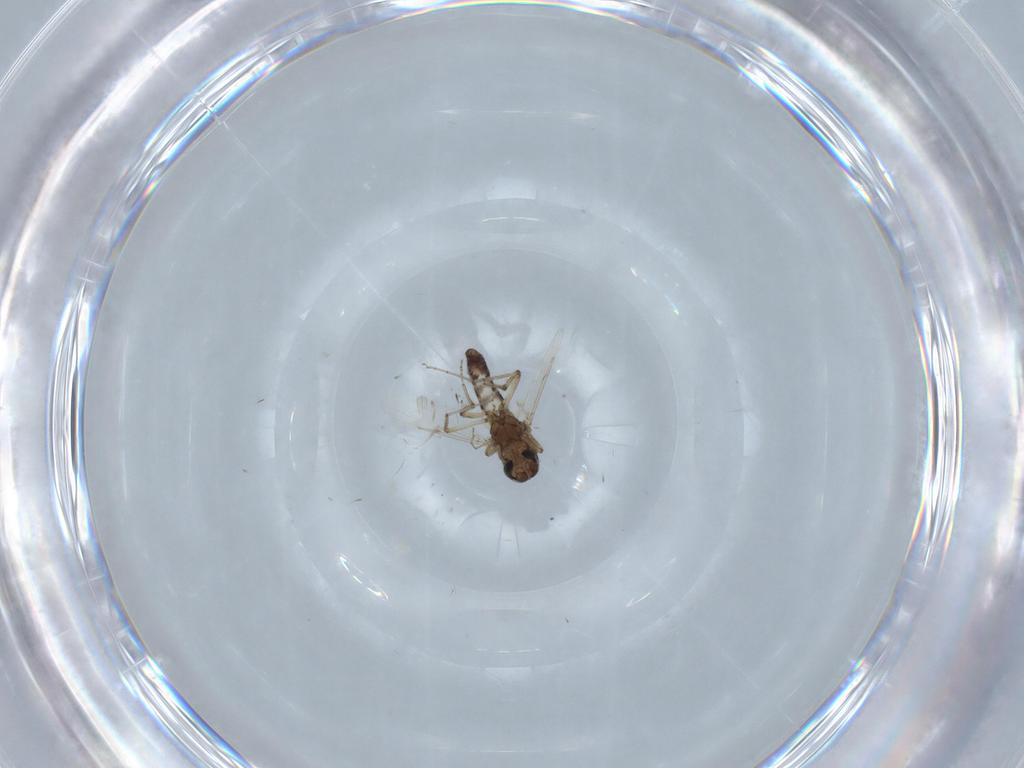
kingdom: Animalia
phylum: Arthropoda
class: Insecta
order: Diptera
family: Ceratopogonidae
